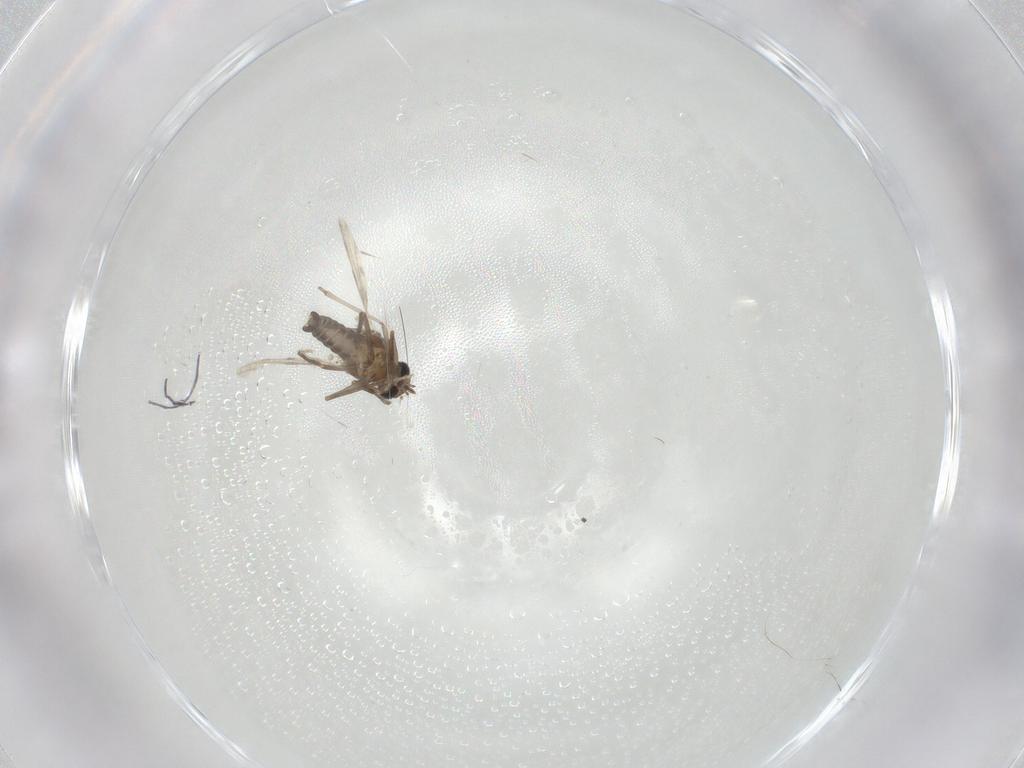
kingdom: Animalia
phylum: Arthropoda
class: Insecta
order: Diptera
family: Ceratopogonidae
